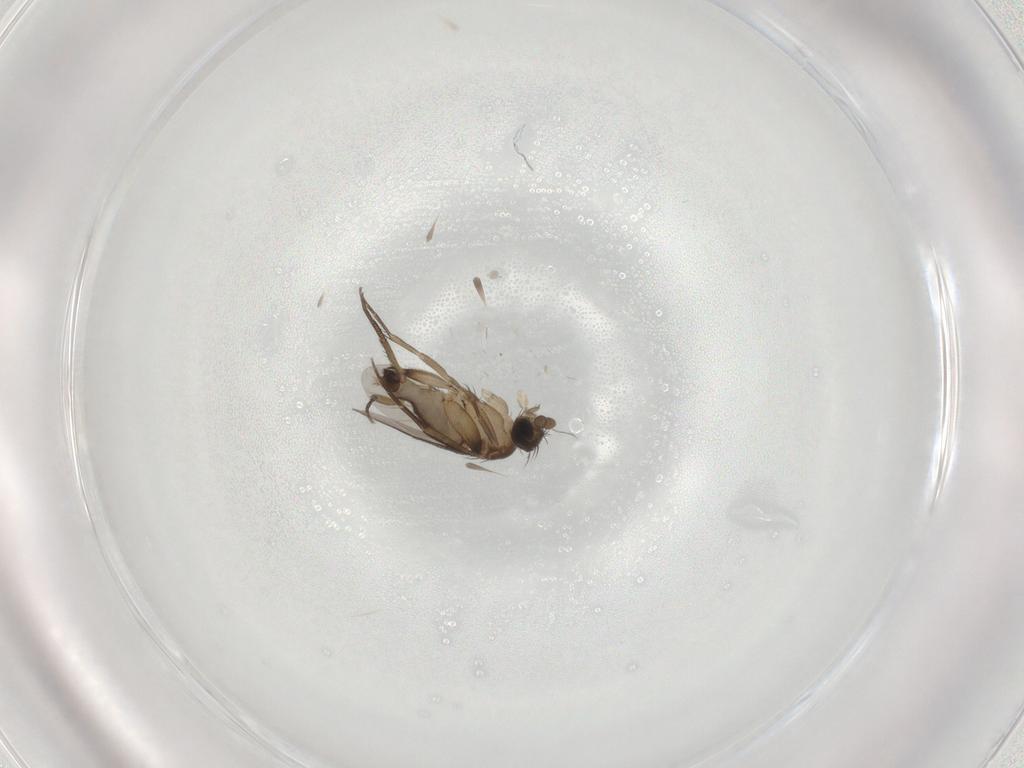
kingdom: Animalia
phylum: Arthropoda
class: Insecta
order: Diptera
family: Phoridae
